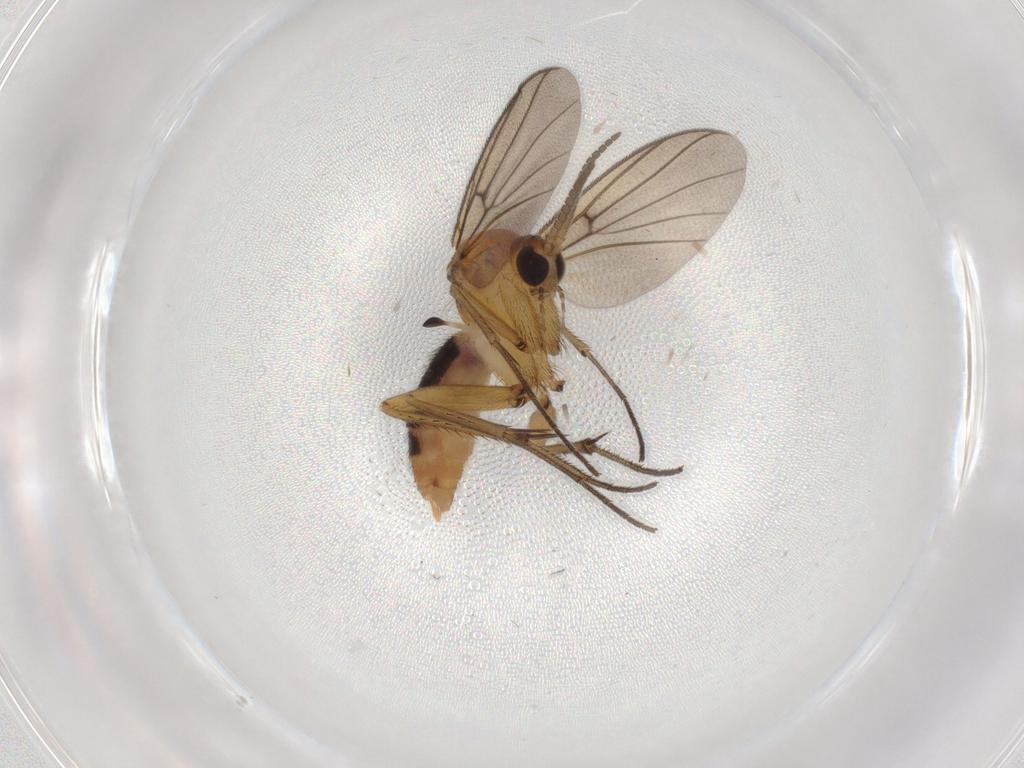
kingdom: Animalia
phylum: Arthropoda
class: Insecta
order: Diptera
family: Mycetophilidae
